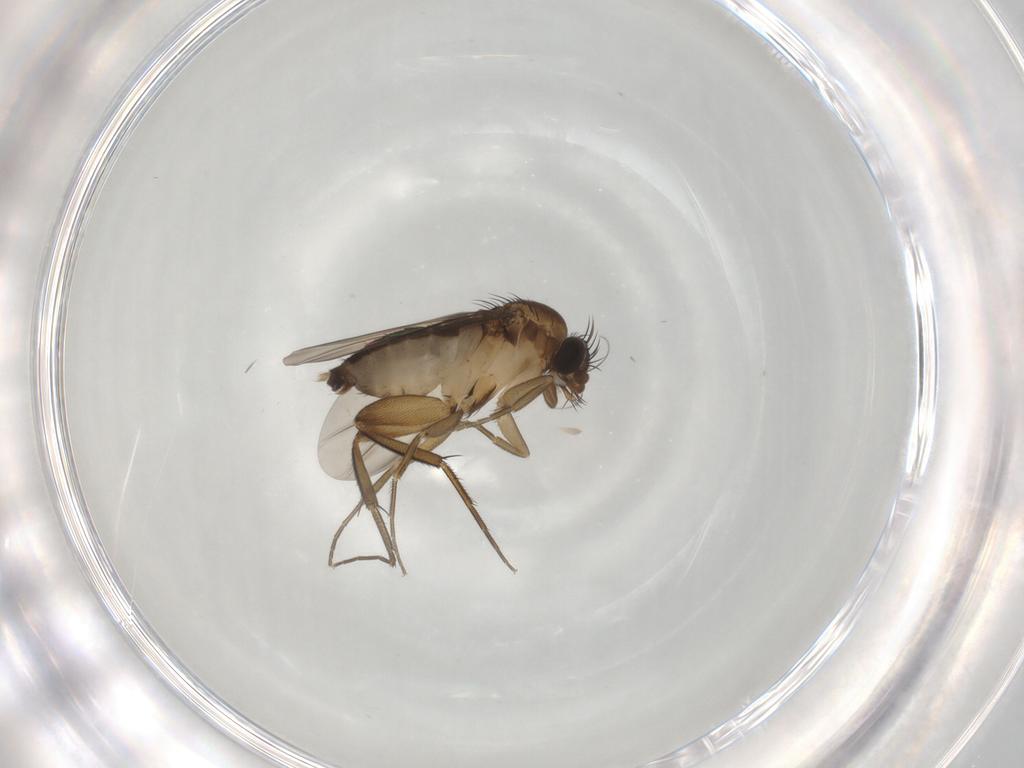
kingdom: Animalia
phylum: Arthropoda
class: Insecta
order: Diptera
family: Phoridae
